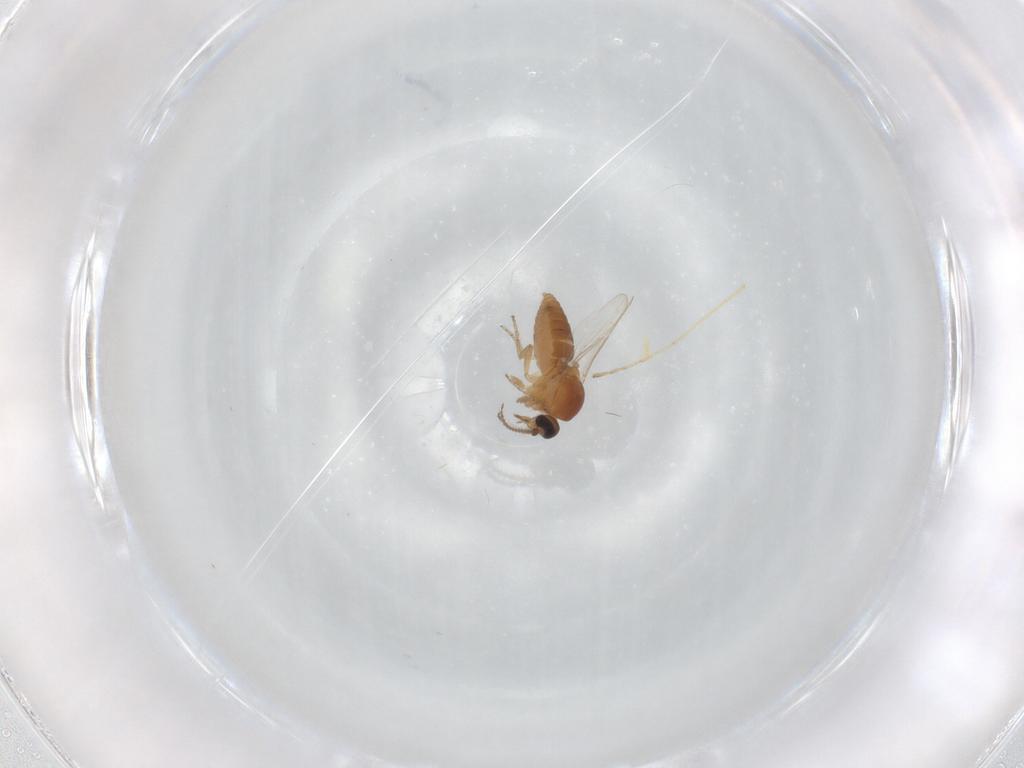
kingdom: Animalia
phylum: Arthropoda
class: Insecta
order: Diptera
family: Ceratopogonidae
